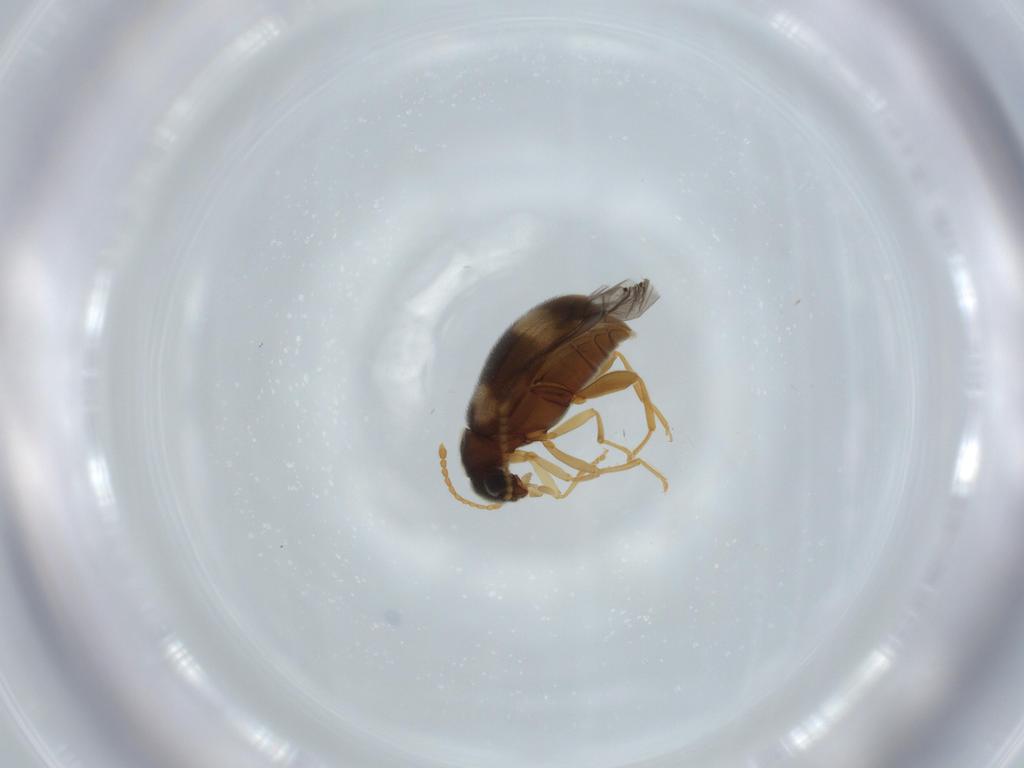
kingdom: Animalia
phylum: Arthropoda
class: Insecta
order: Coleoptera
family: Aderidae
